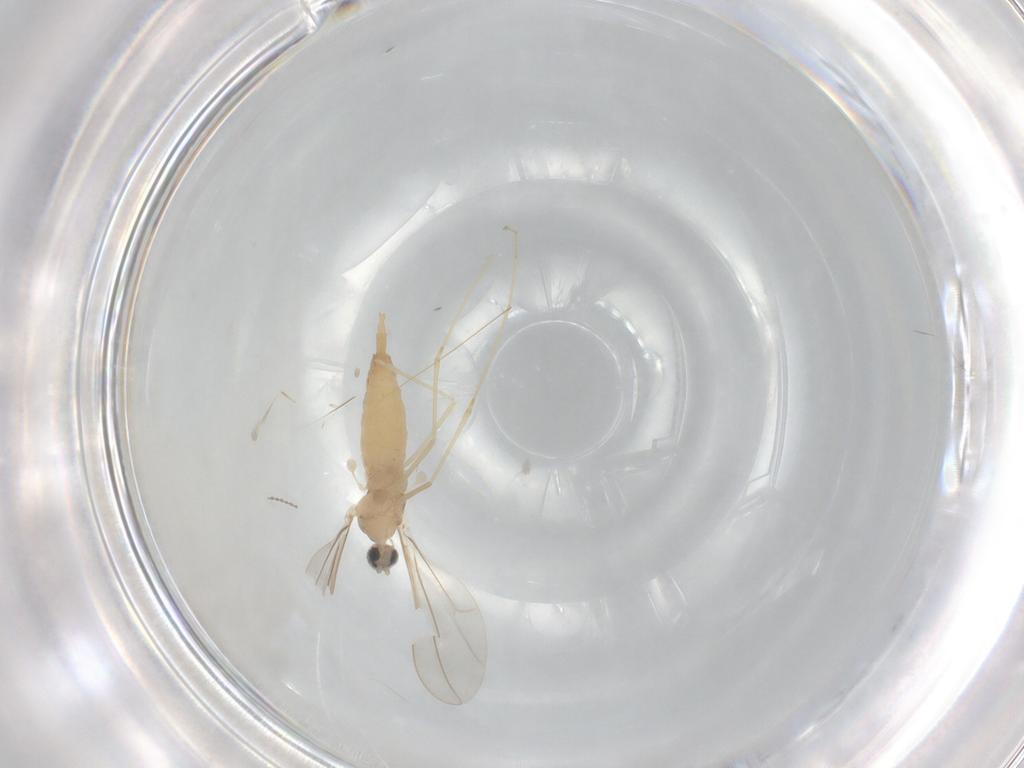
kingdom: Animalia
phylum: Arthropoda
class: Insecta
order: Diptera
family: Cecidomyiidae
